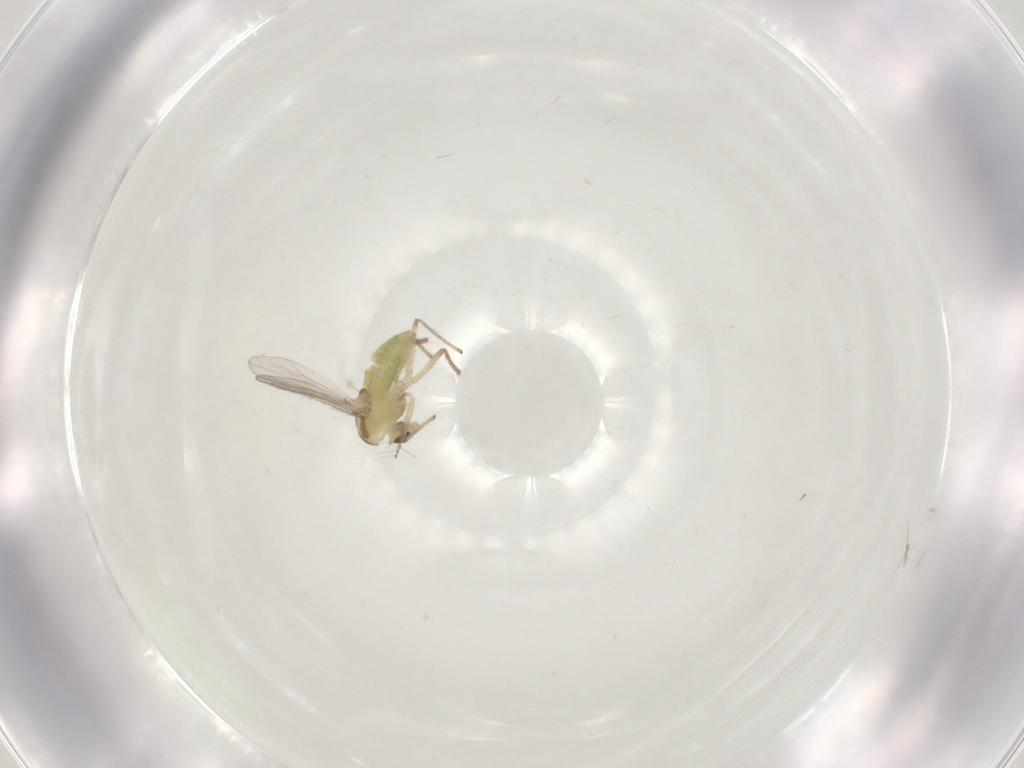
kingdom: Animalia
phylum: Arthropoda
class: Insecta
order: Diptera
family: Chironomidae
